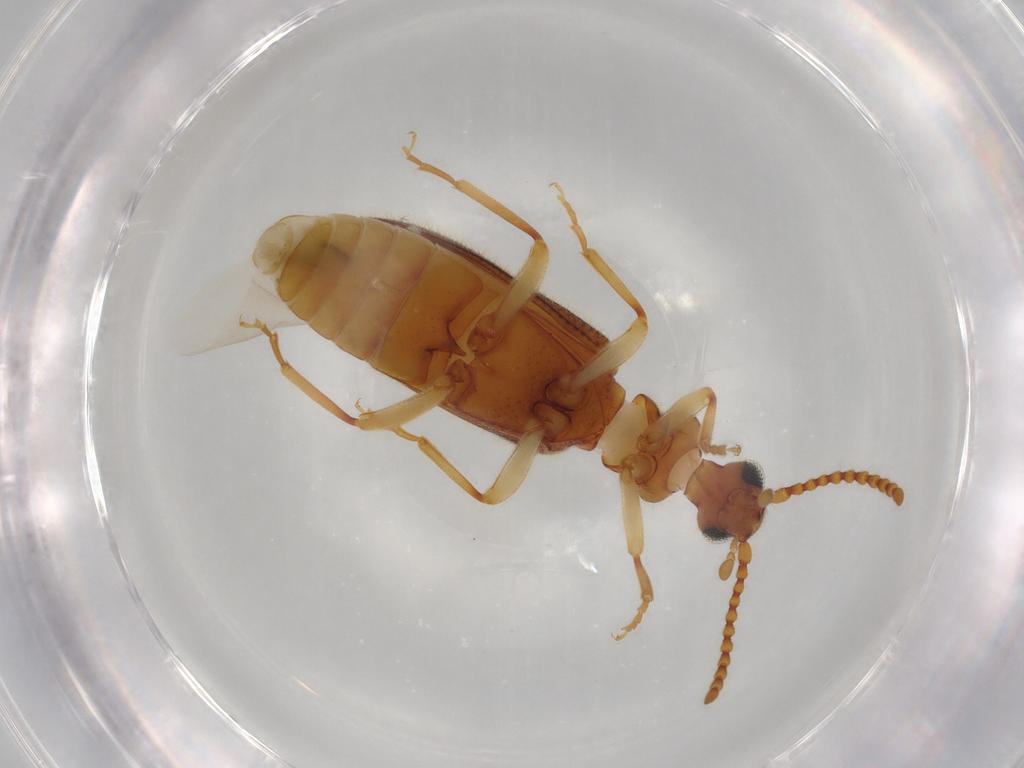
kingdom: Animalia
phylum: Arthropoda
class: Insecta
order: Coleoptera
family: Anthicidae
